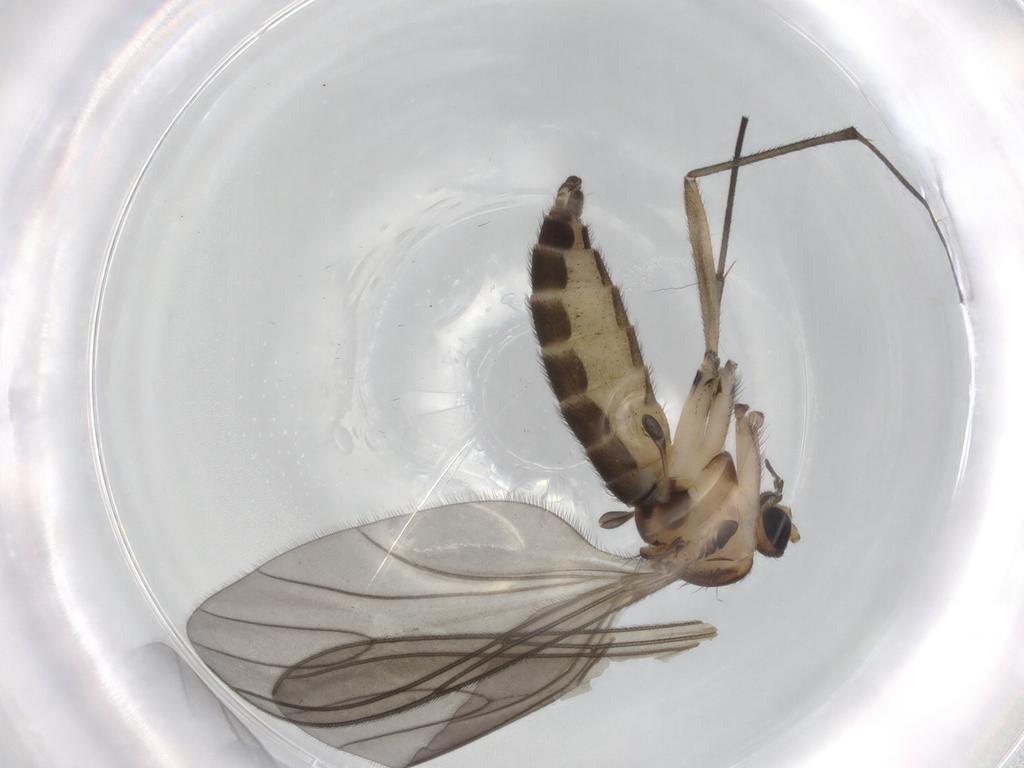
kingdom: Animalia
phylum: Arthropoda
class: Insecta
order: Diptera
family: Sciaridae
